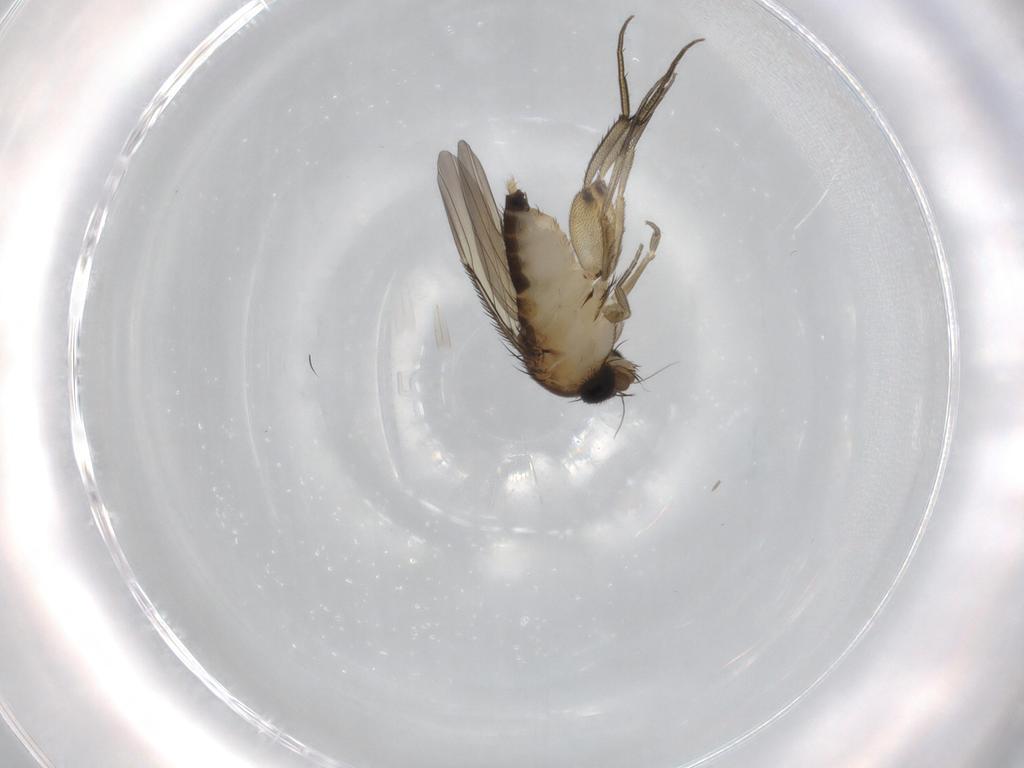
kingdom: Animalia
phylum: Arthropoda
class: Insecta
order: Diptera
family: Phoridae
